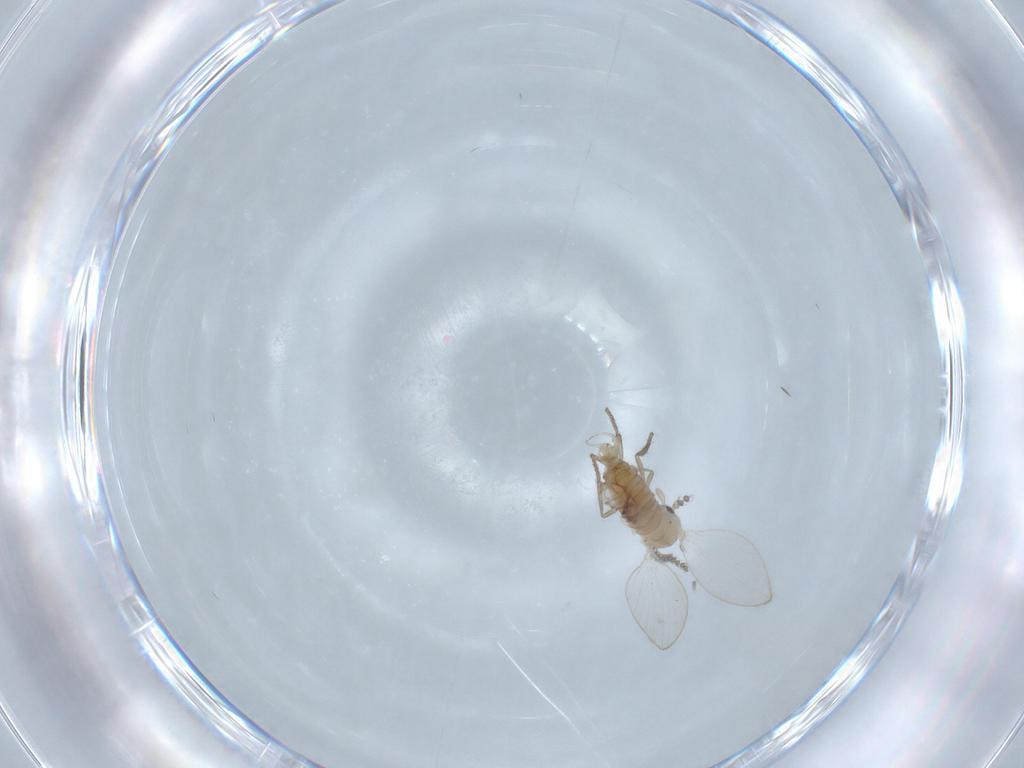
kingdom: Animalia
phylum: Arthropoda
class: Insecta
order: Diptera
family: Psychodidae
